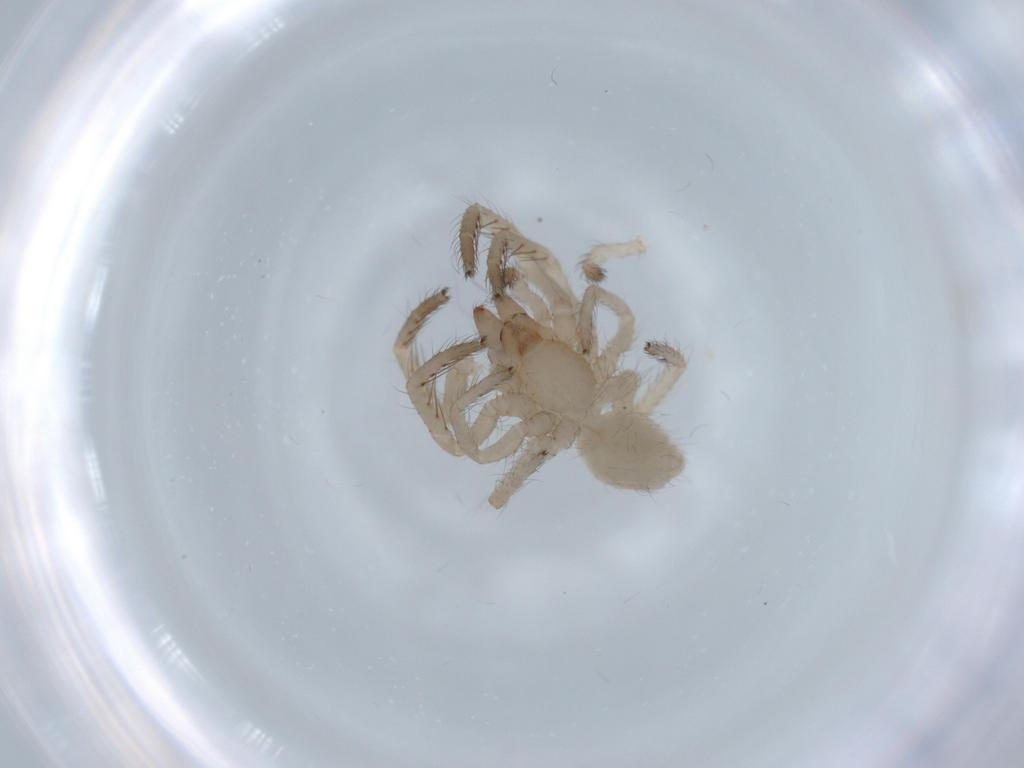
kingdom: Animalia
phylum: Arthropoda
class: Arachnida
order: Araneae
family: Segestriidae
